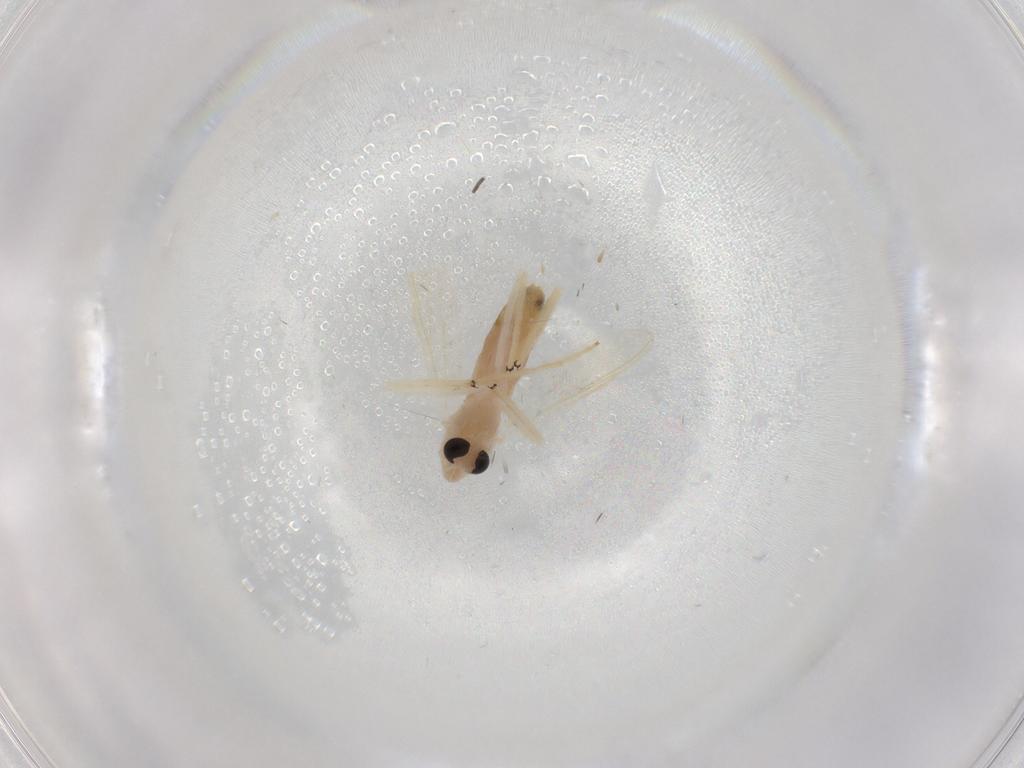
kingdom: Animalia
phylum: Arthropoda
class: Insecta
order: Diptera
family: Chironomidae
